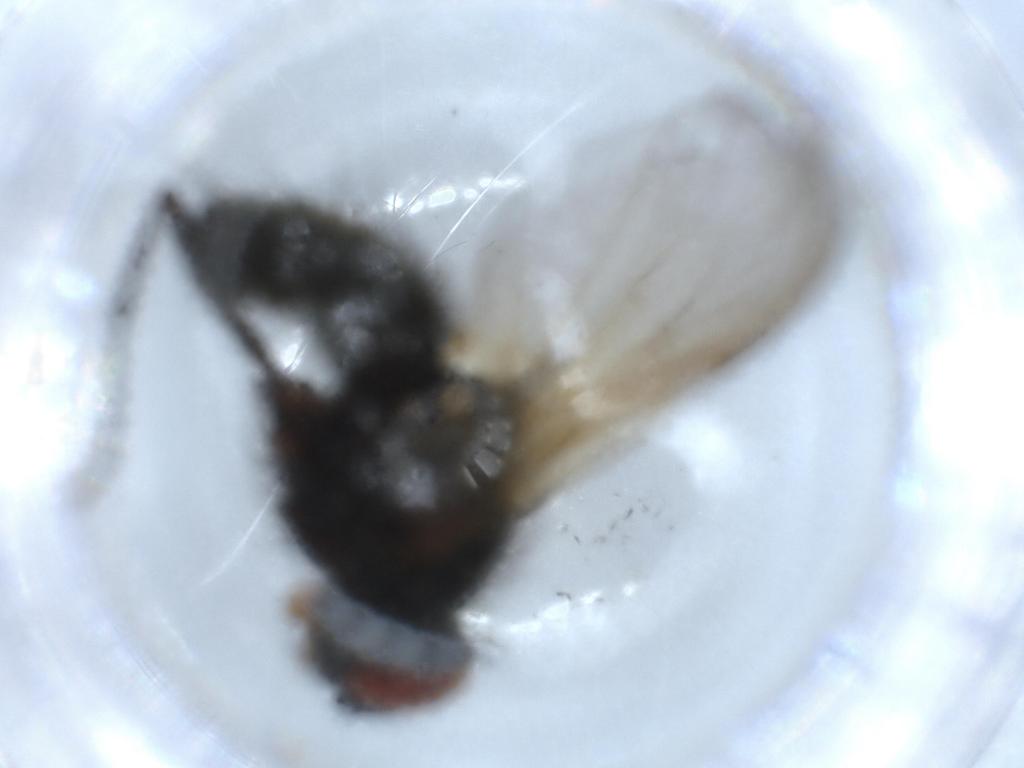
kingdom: Animalia
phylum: Arthropoda
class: Insecta
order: Diptera
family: Tachinidae
